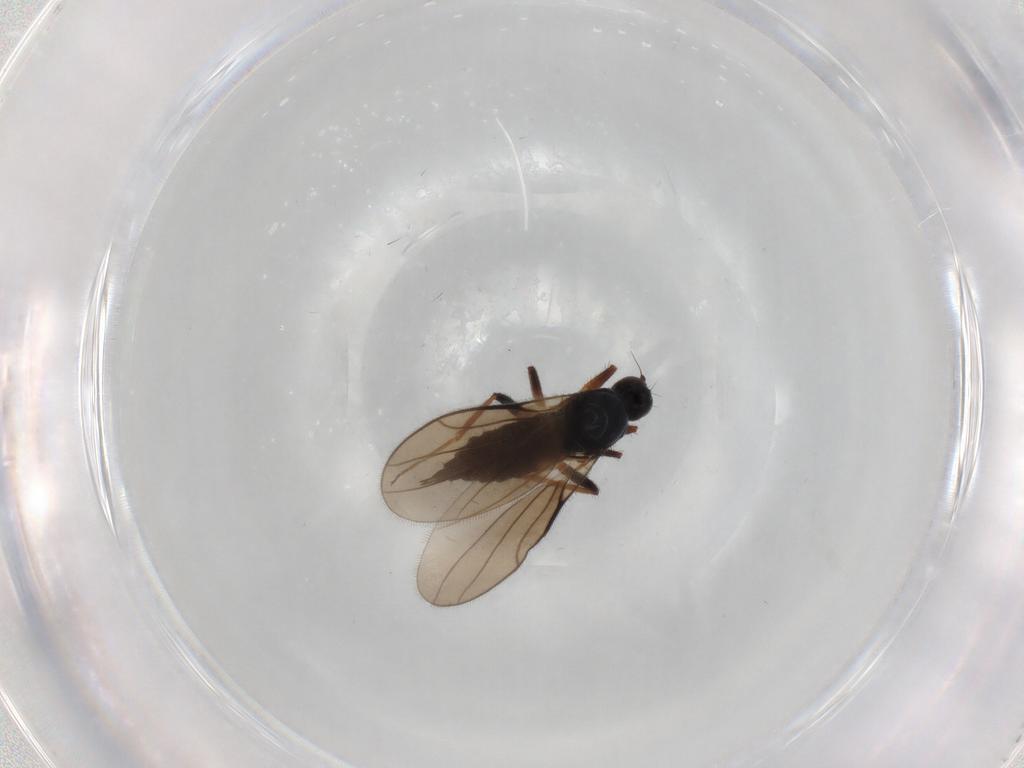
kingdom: Animalia
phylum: Arthropoda
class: Insecta
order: Diptera
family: Hybotidae
